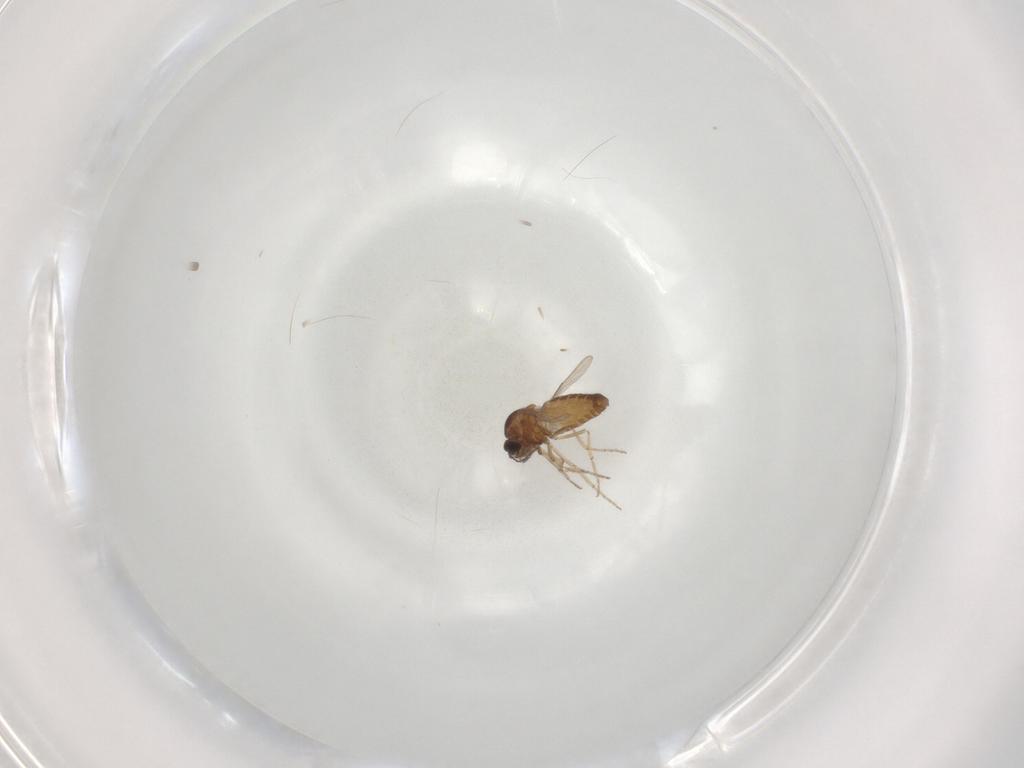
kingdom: Animalia
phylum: Arthropoda
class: Insecta
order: Diptera
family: Ceratopogonidae
